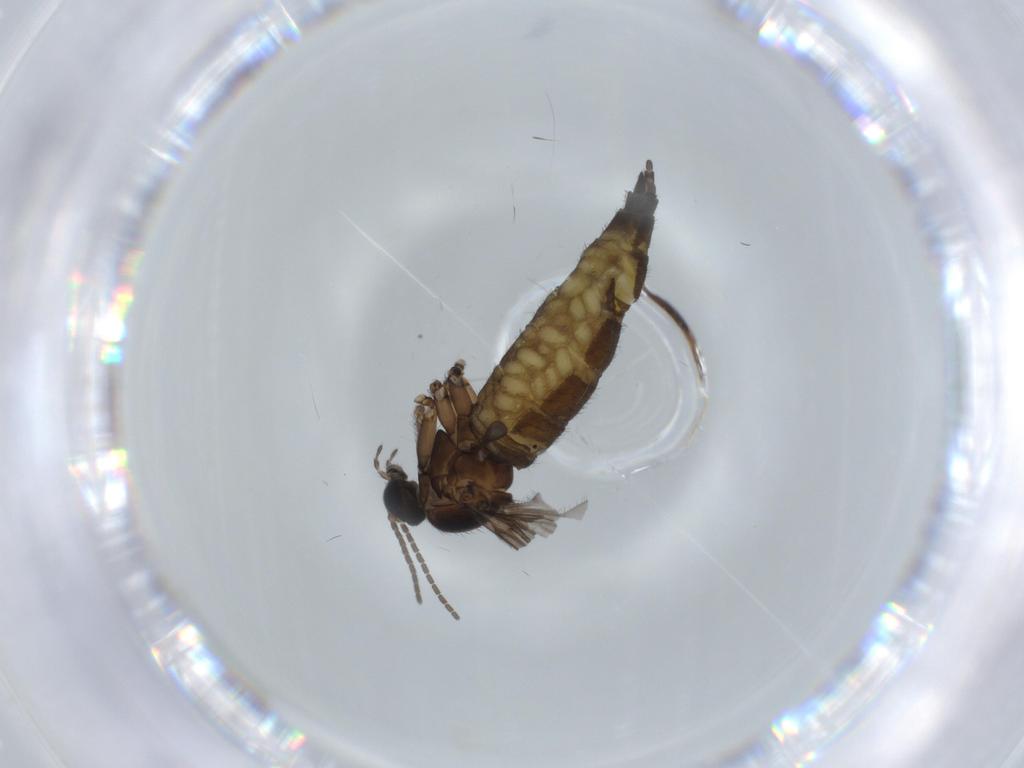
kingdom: Animalia
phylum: Arthropoda
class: Insecta
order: Diptera
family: Sciaridae
